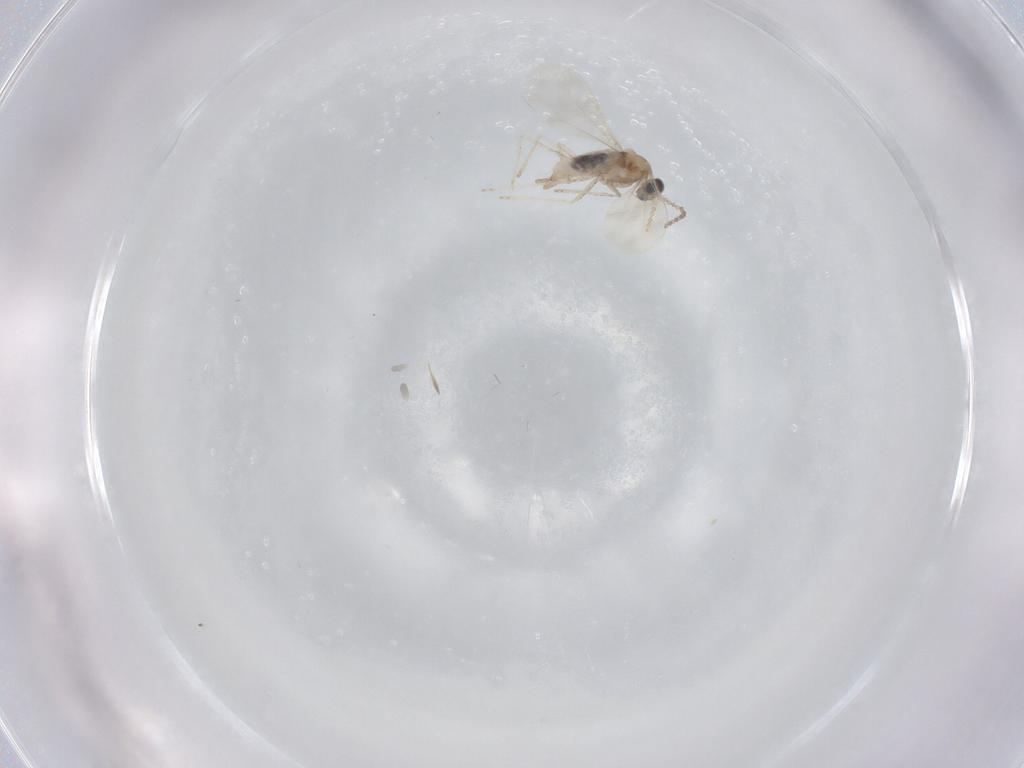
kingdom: Animalia
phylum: Arthropoda
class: Insecta
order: Diptera
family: Cecidomyiidae
